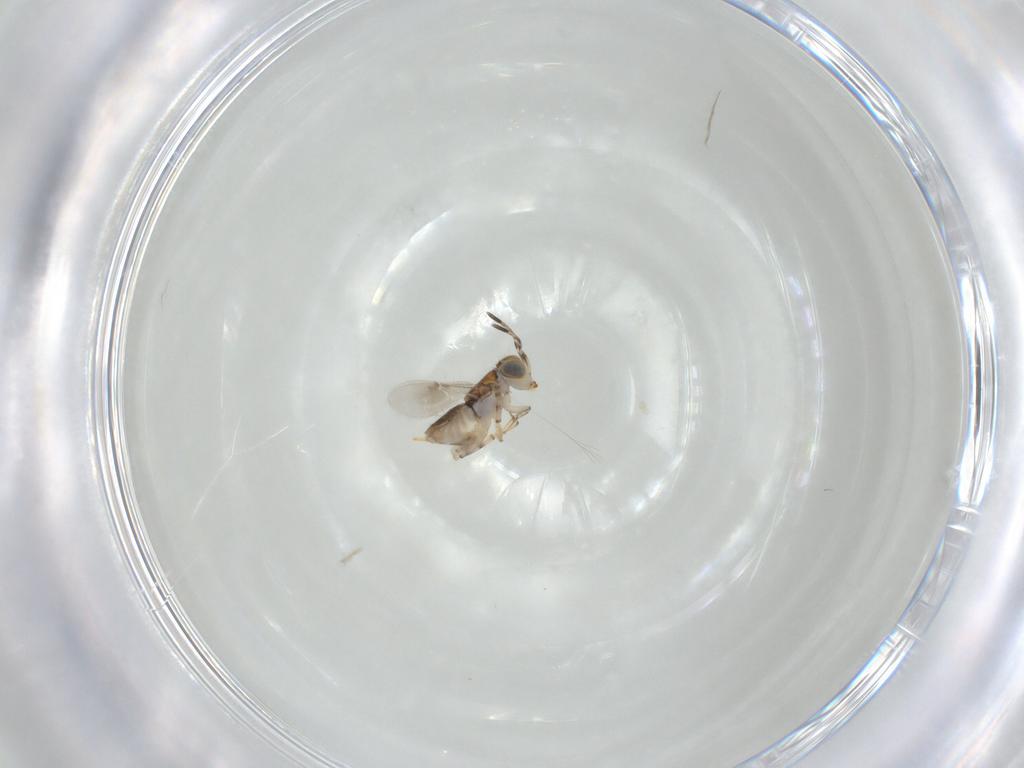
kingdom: Animalia
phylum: Arthropoda
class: Insecta
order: Hymenoptera
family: Encyrtidae
